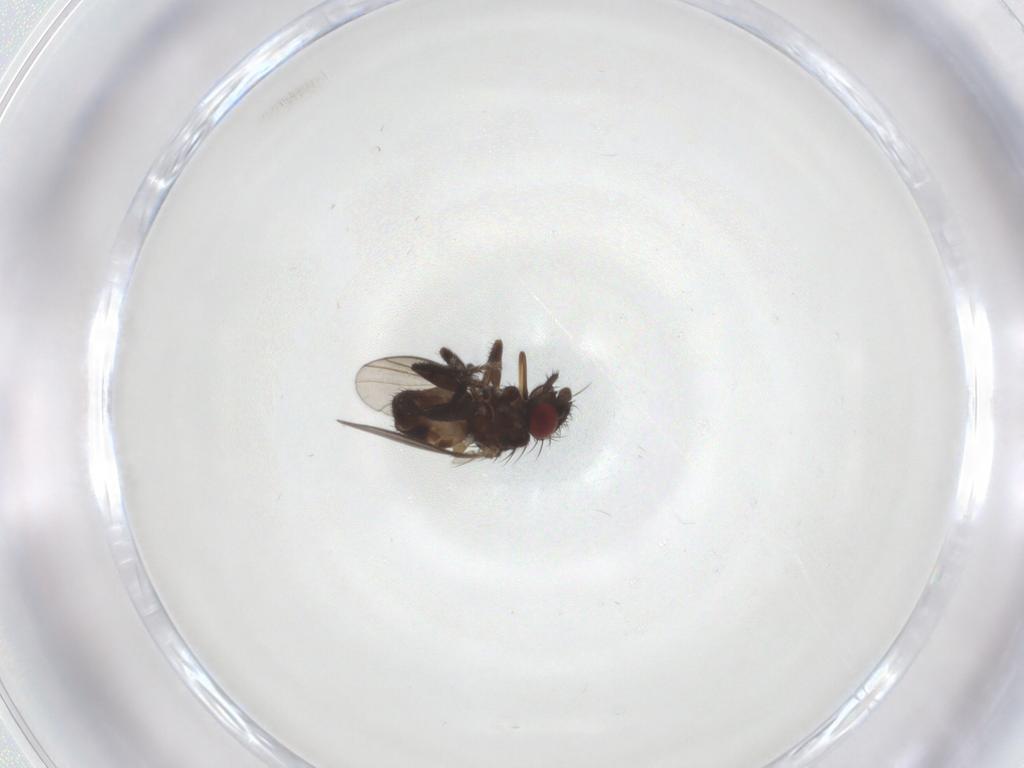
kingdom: Animalia
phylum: Arthropoda
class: Insecta
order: Diptera
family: Milichiidae
